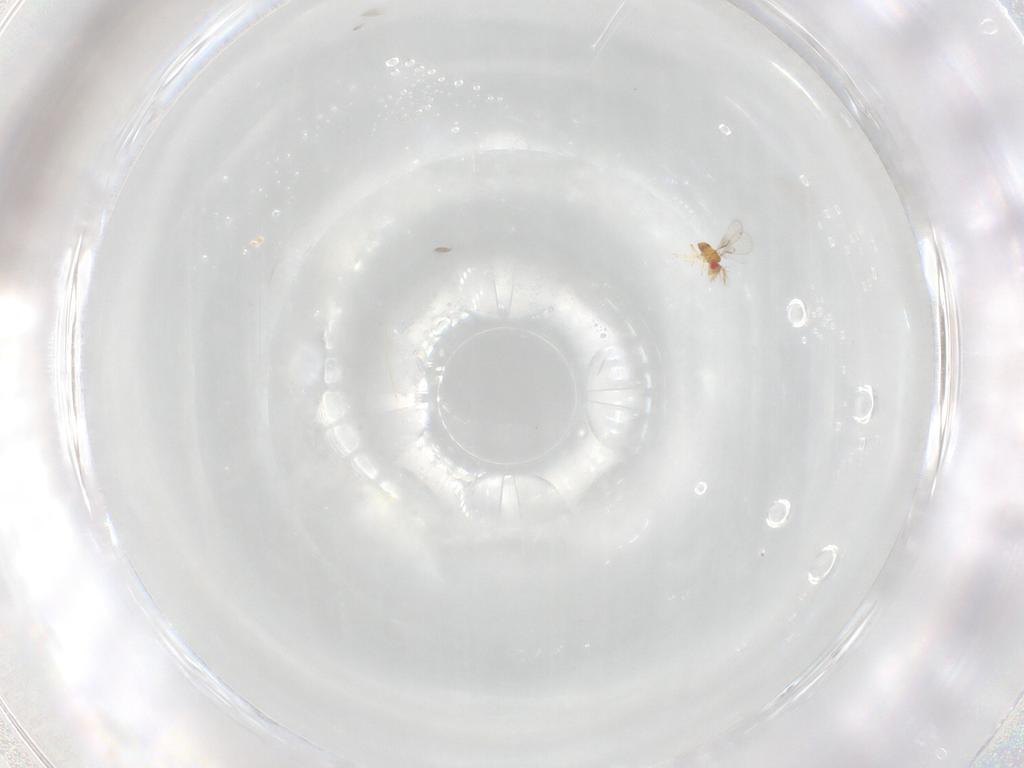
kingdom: Animalia
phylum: Arthropoda
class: Insecta
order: Hymenoptera
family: Trichogrammatidae
